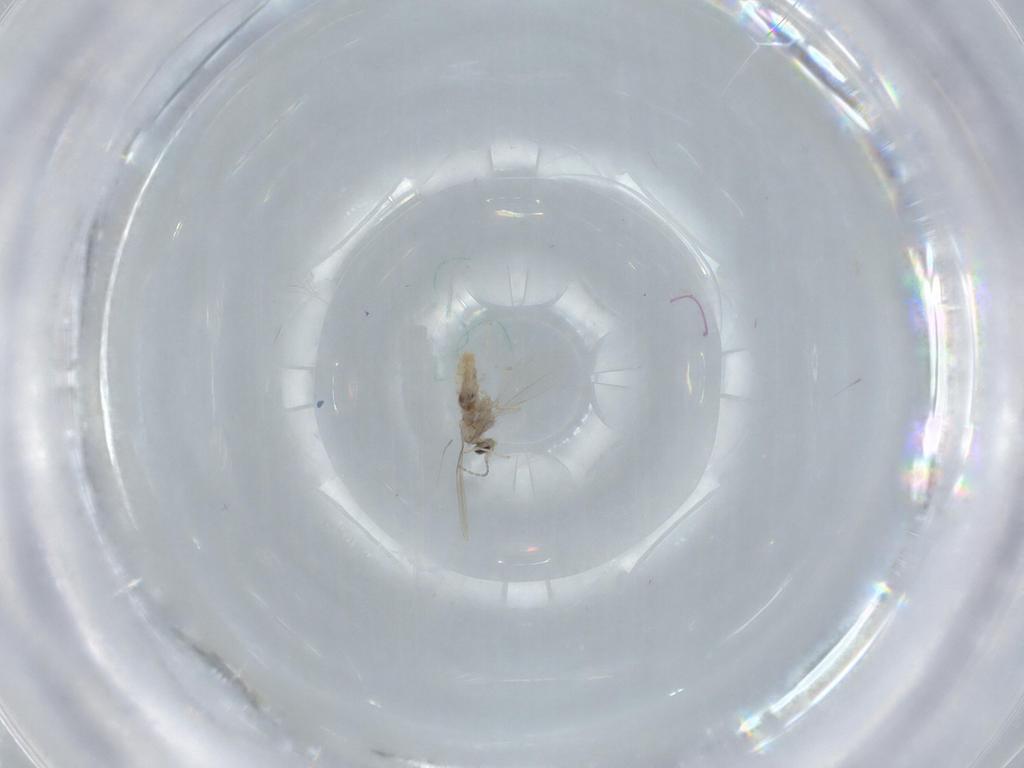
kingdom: Animalia
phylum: Arthropoda
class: Insecta
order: Diptera
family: Cecidomyiidae
